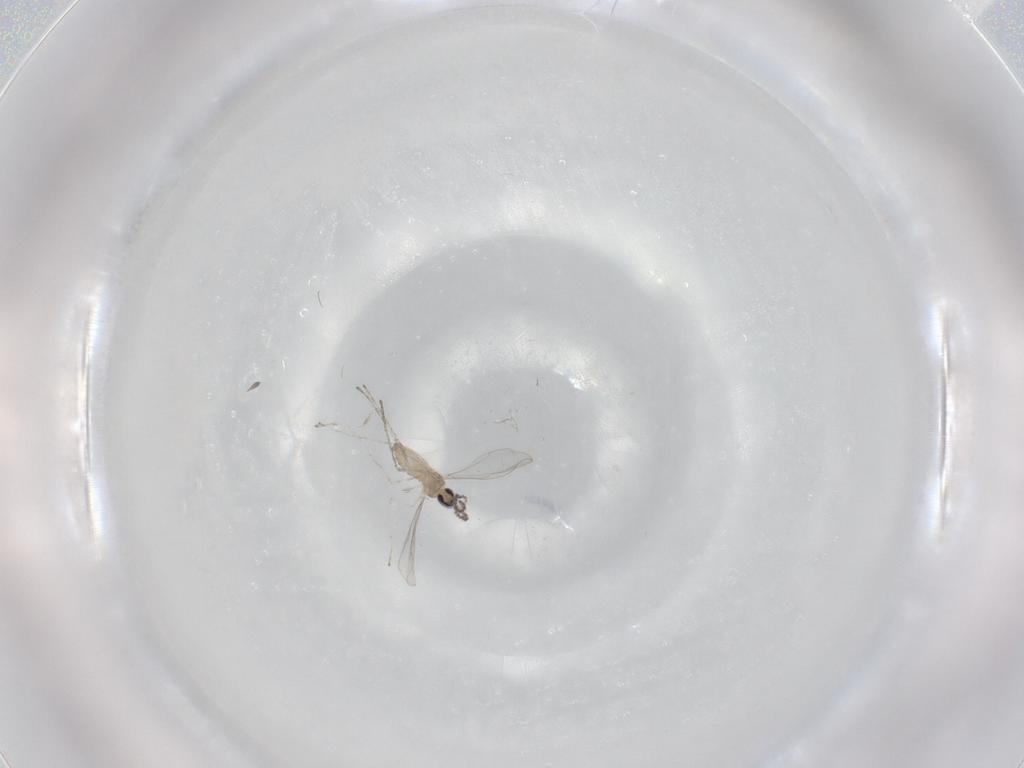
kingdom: Animalia
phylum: Arthropoda
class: Insecta
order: Diptera
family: Cecidomyiidae
